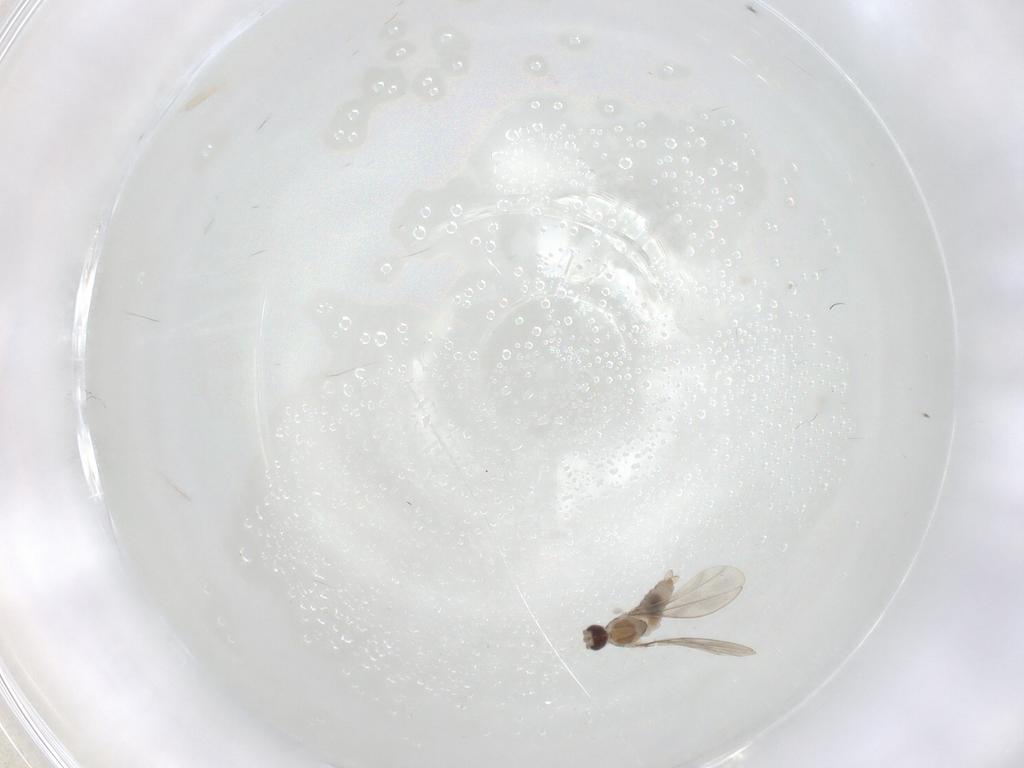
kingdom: Animalia
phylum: Arthropoda
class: Insecta
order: Diptera
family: Cecidomyiidae
